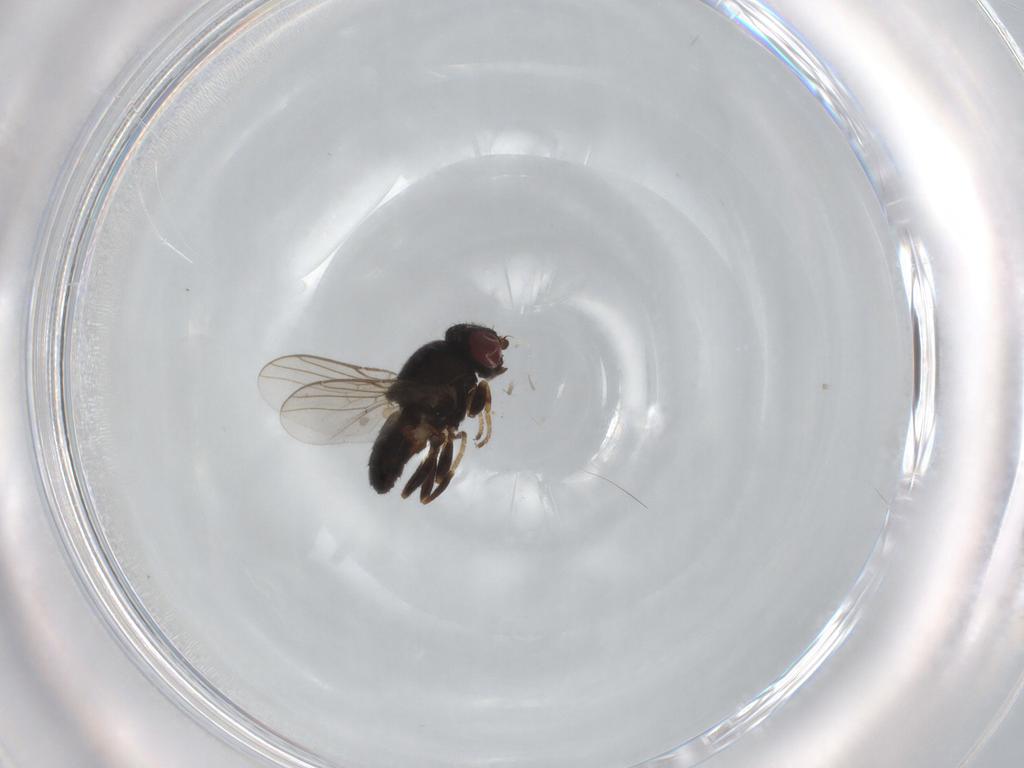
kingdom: Animalia
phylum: Arthropoda
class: Insecta
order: Diptera
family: Chloropidae
